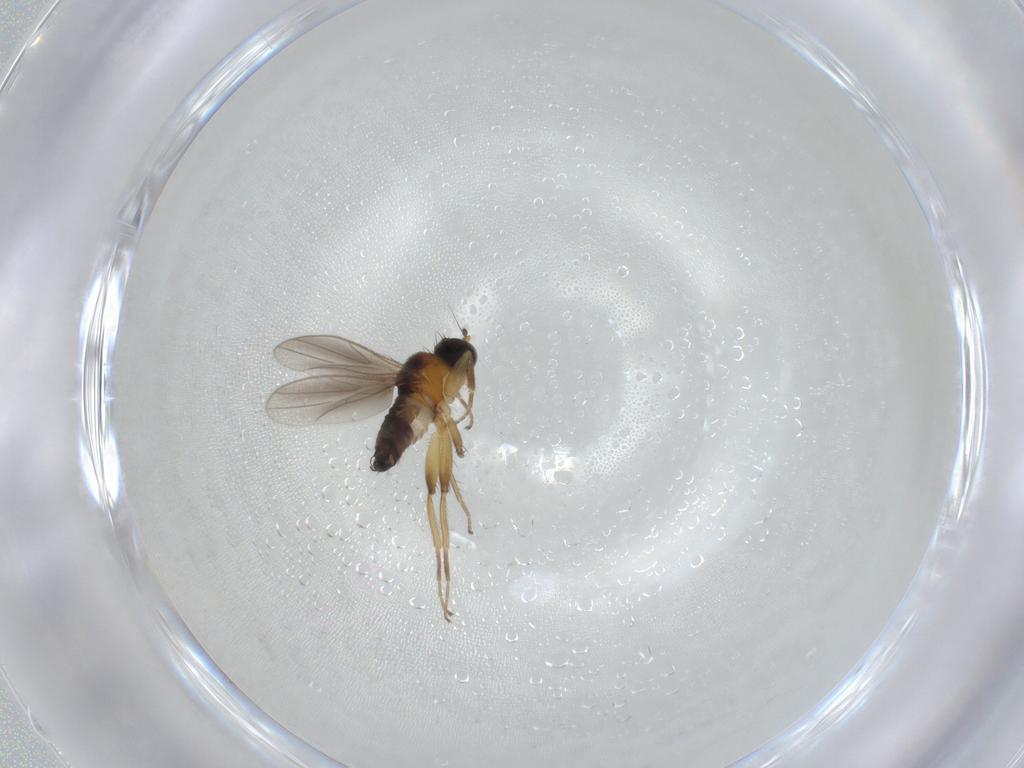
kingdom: Animalia
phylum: Arthropoda
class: Insecta
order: Diptera
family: Hybotidae
